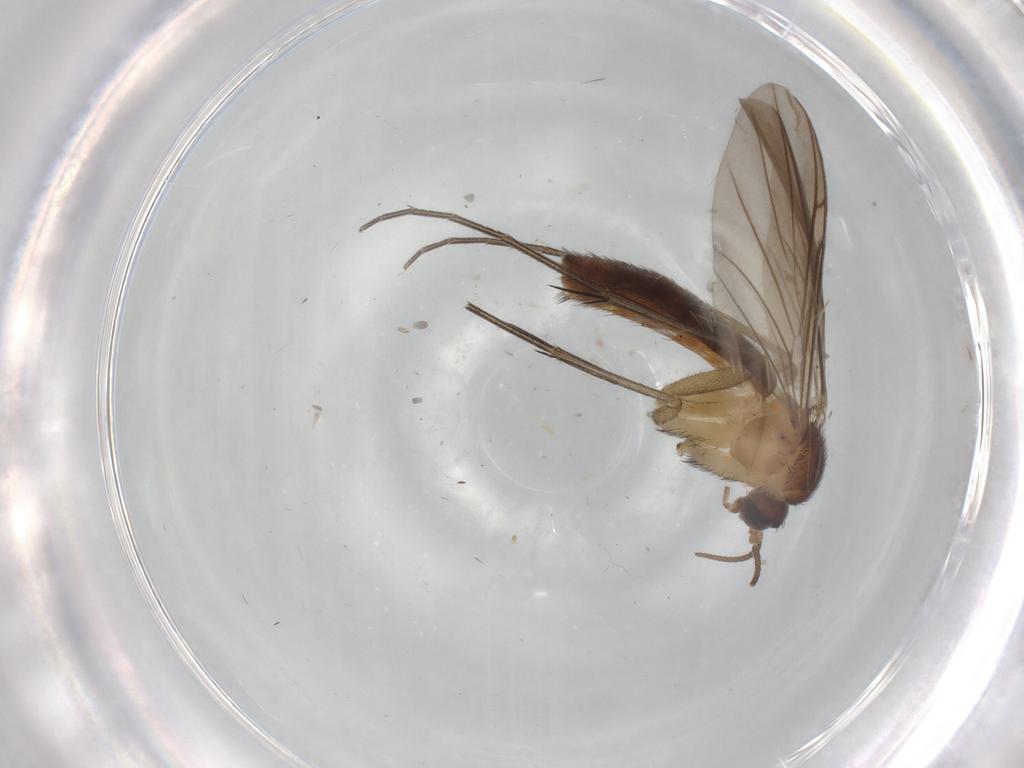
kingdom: Animalia
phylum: Arthropoda
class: Insecta
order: Diptera
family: Keroplatidae
